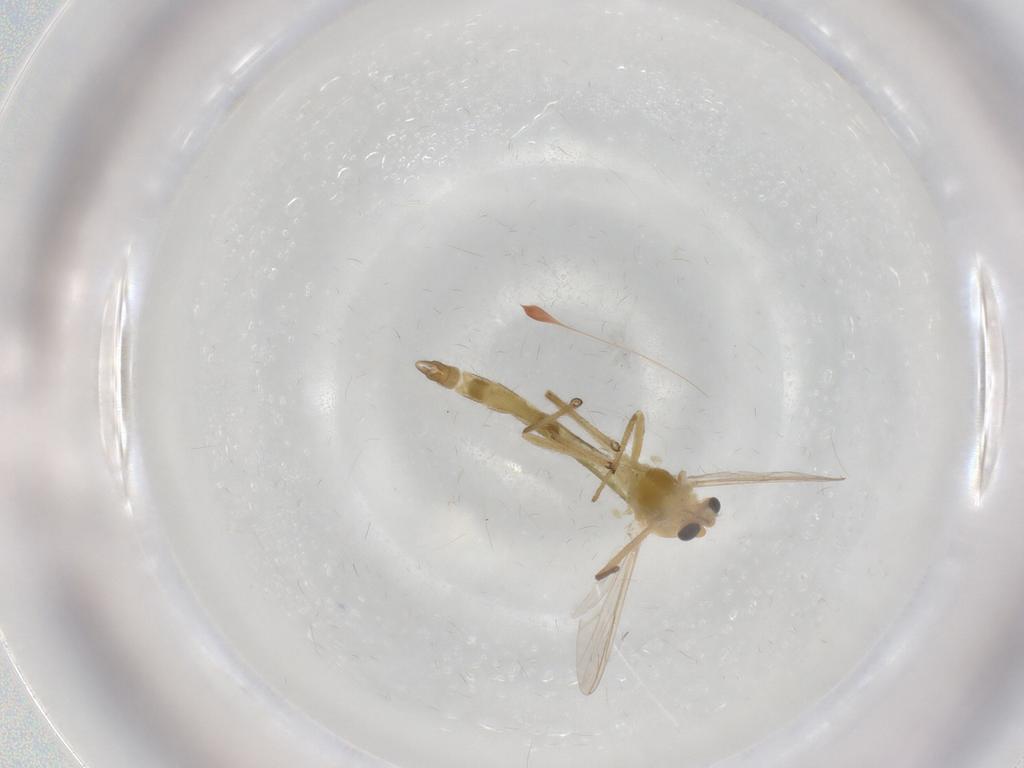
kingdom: Animalia
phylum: Arthropoda
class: Insecta
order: Diptera
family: Chironomidae
